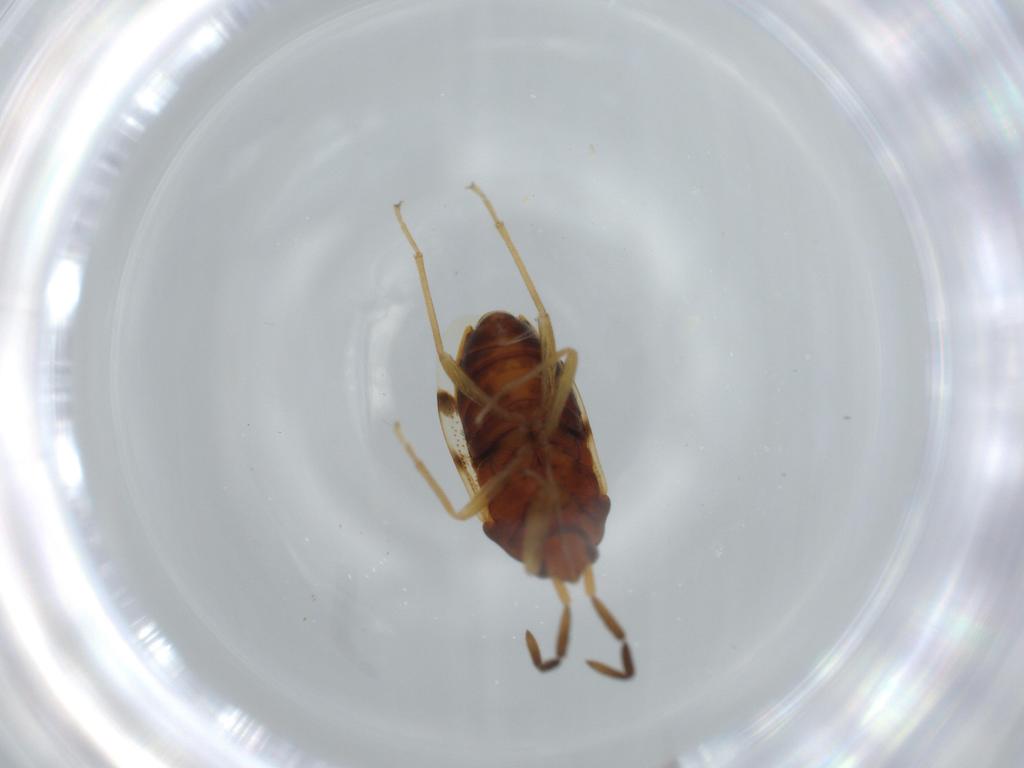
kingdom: Animalia
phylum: Arthropoda
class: Insecta
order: Hemiptera
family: Rhyparochromidae
